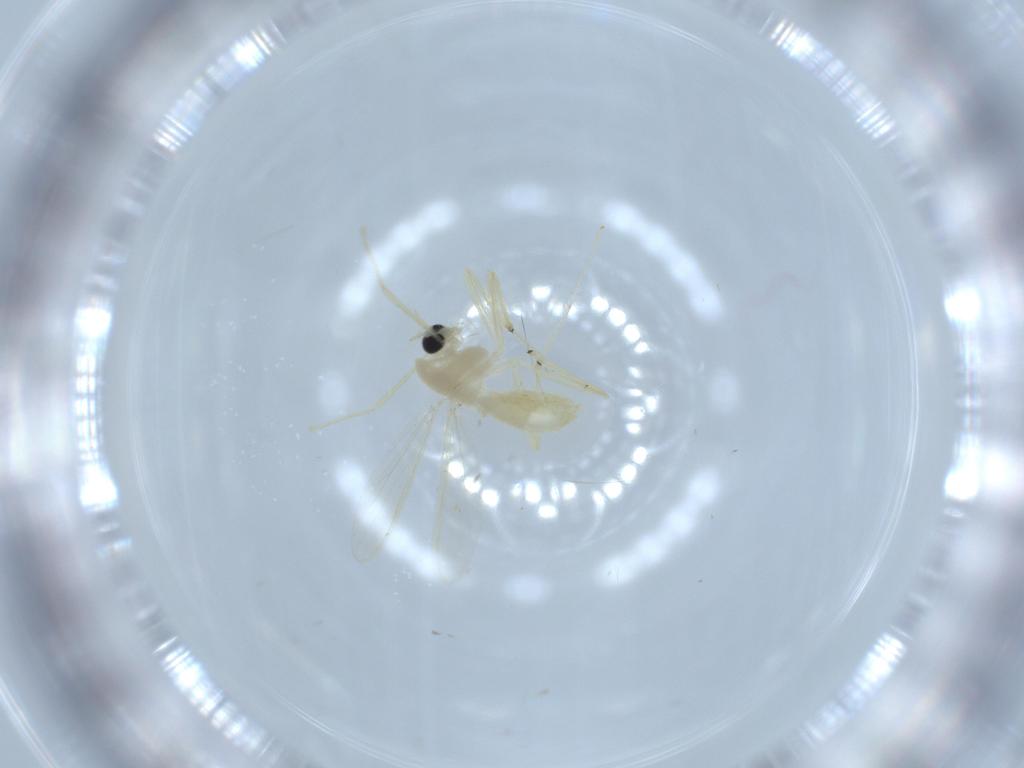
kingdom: Animalia
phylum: Arthropoda
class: Insecta
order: Diptera
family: Chironomidae
